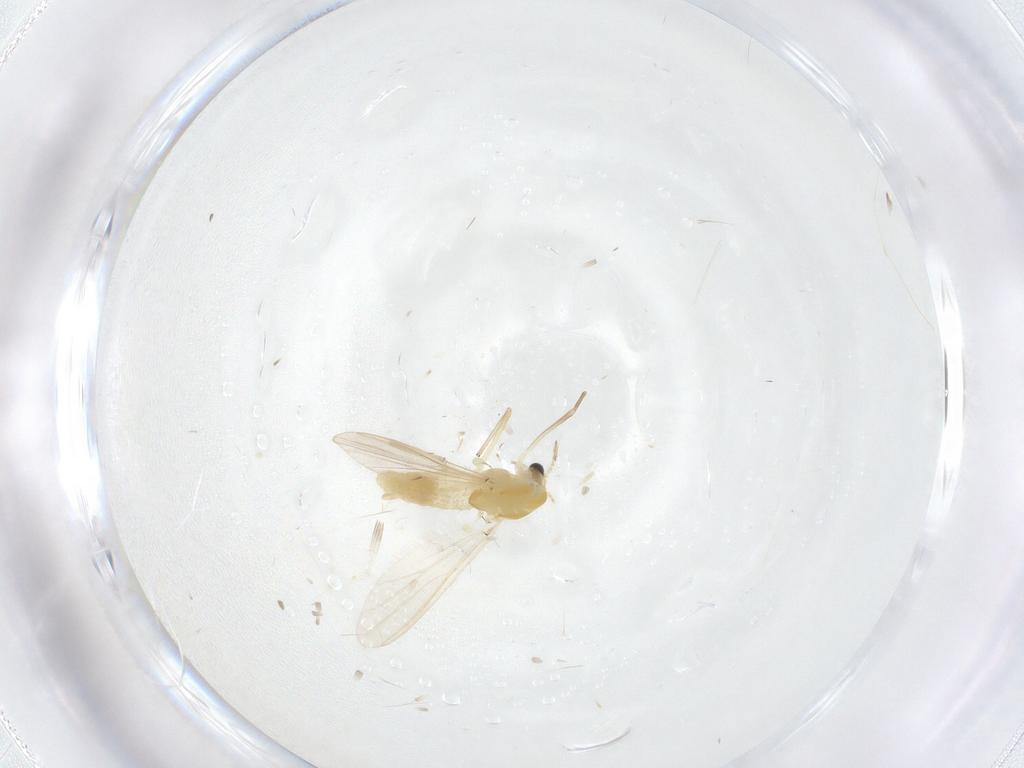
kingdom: Animalia
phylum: Arthropoda
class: Insecta
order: Diptera
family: Chironomidae
